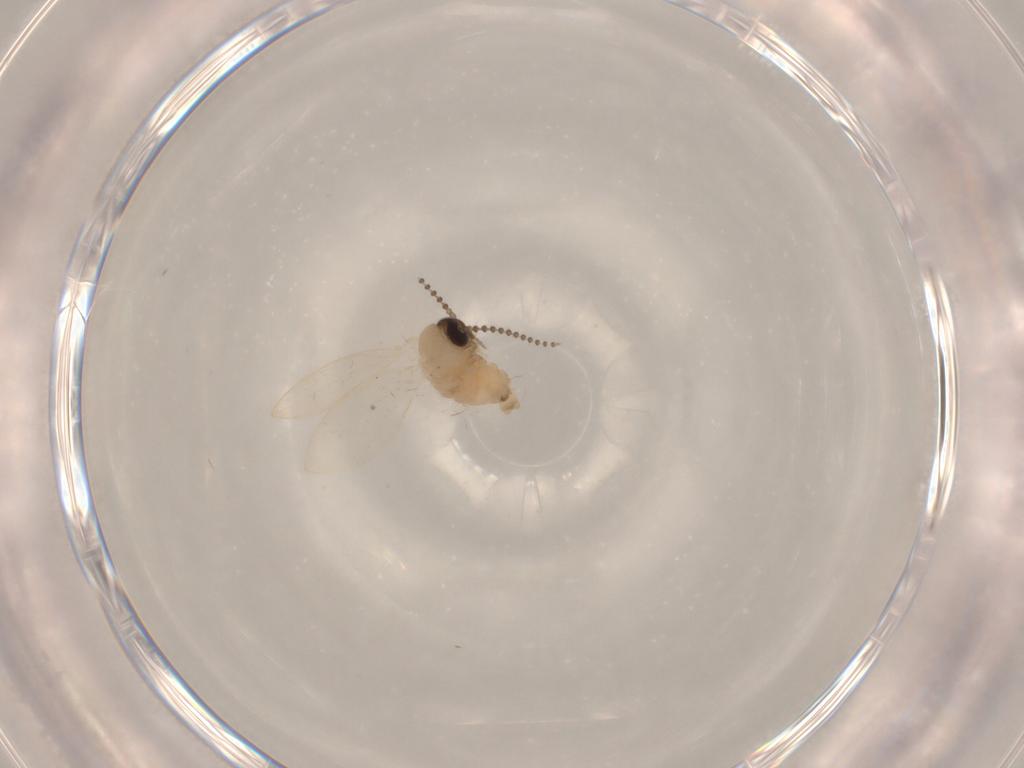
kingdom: Animalia
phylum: Arthropoda
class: Insecta
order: Diptera
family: Psychodidae
